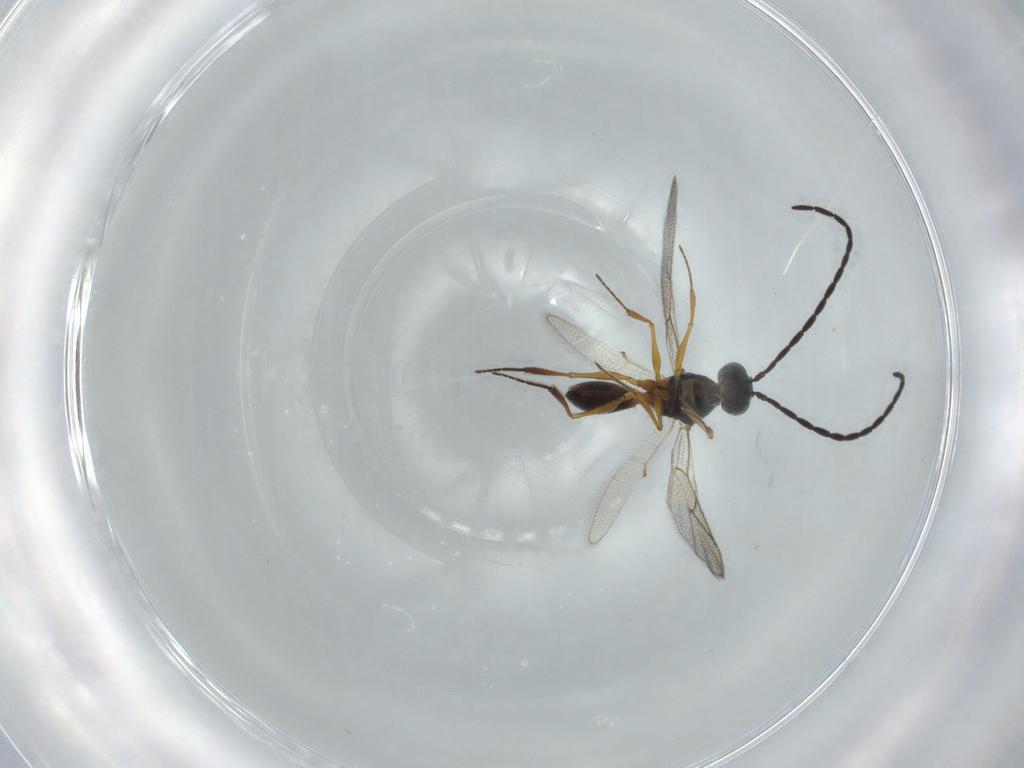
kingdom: Animalia
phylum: Arthropoda
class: Insecta
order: Hymenoptera
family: Figitidae
